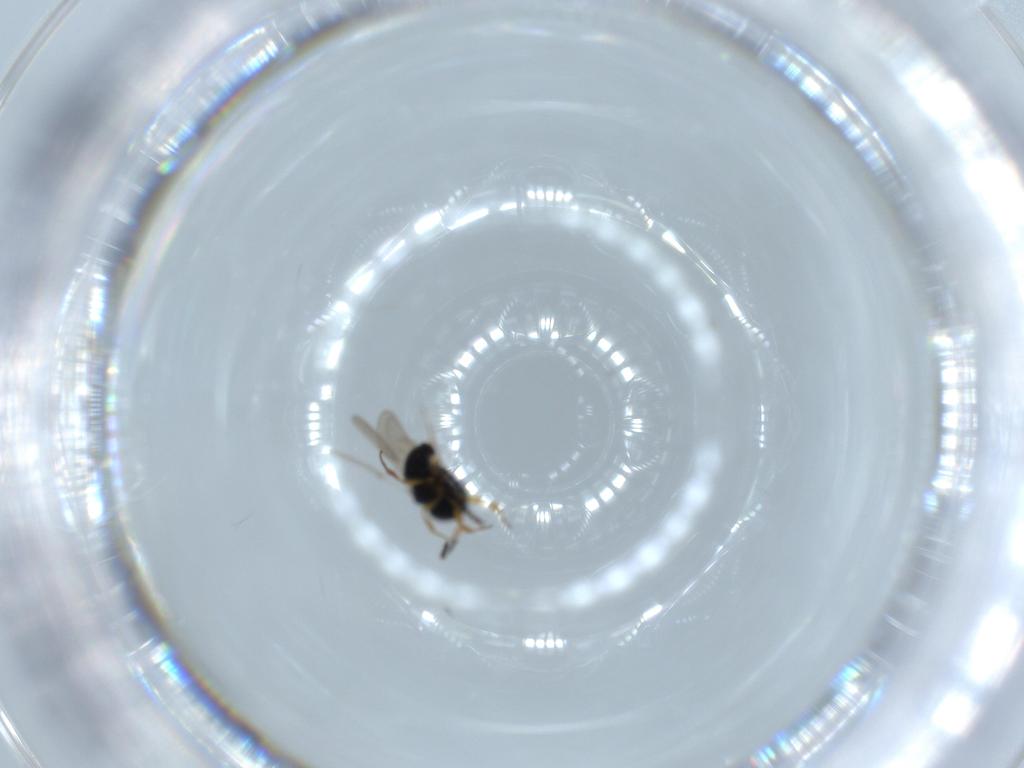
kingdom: Animalia
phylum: Arthropoda
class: Insecta
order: Hymenoptera
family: Scelionidae
